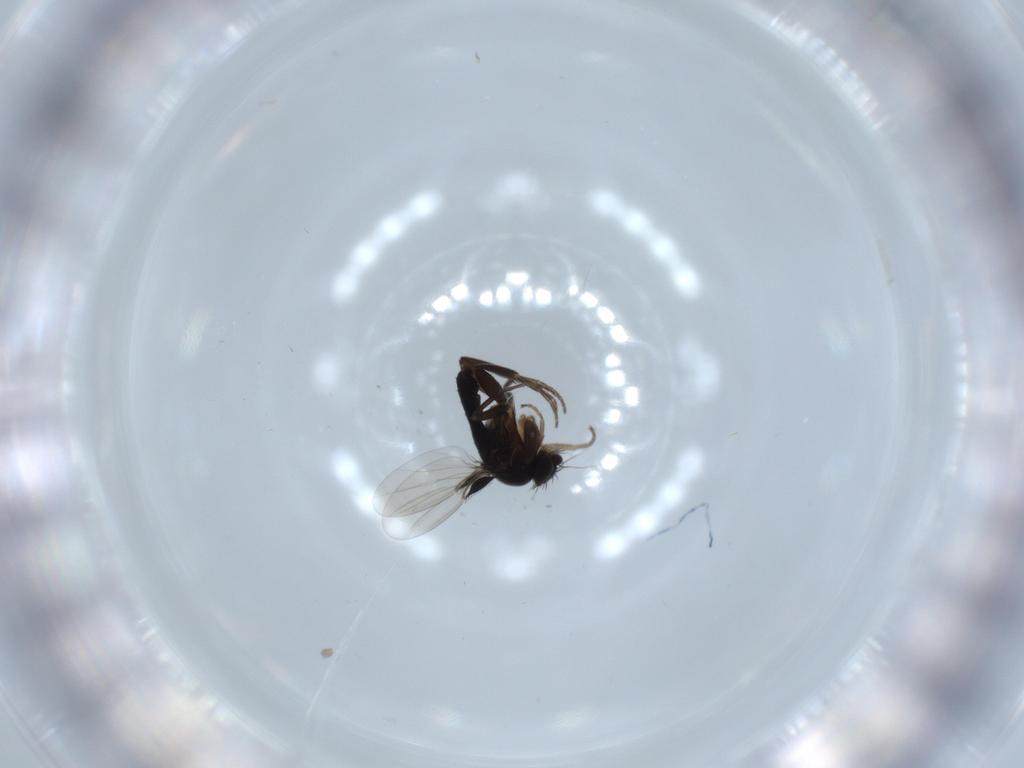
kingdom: Animalia
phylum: Arthropoda
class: Insecta
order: Diptera
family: Phoridae
